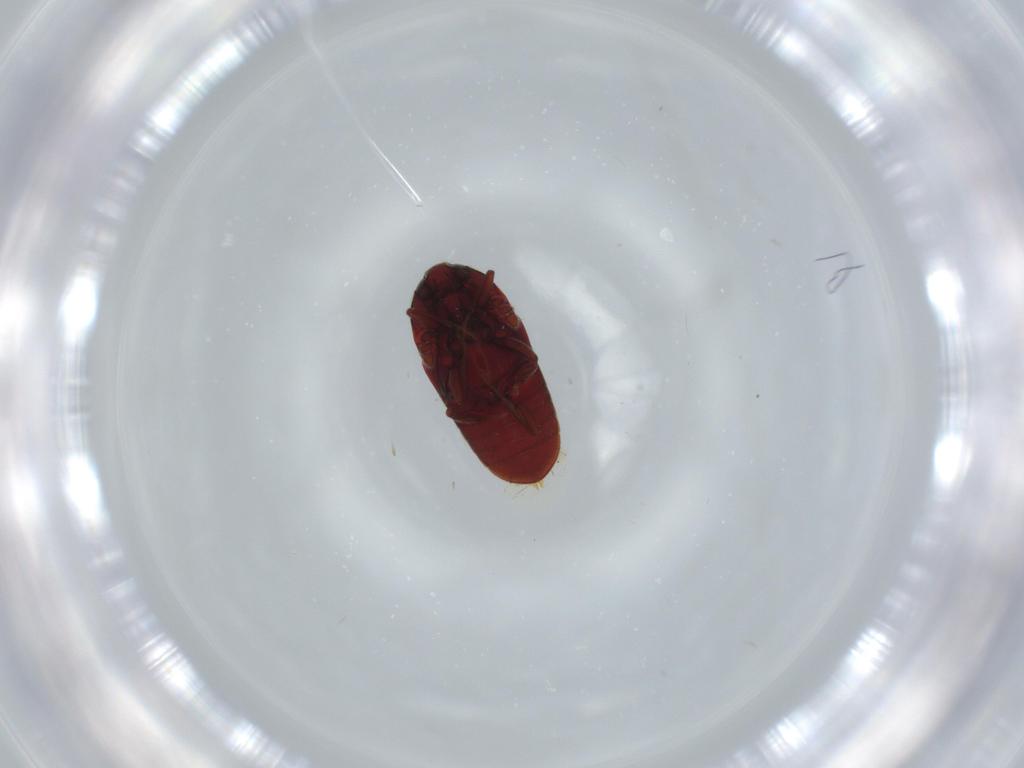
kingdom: Animalia
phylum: Arthropoda
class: Insecta
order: Coleoptera
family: Throscidae
